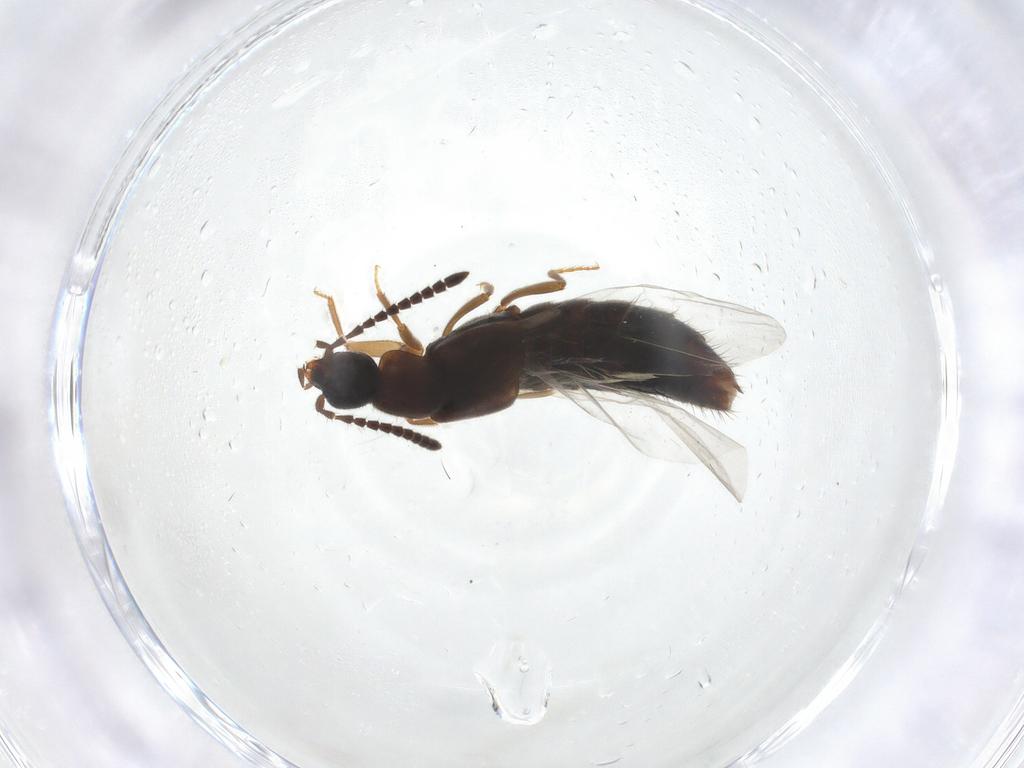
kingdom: Animalia
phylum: Arthropoda
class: Insecta
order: Coleoptera
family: Staphylinidae
